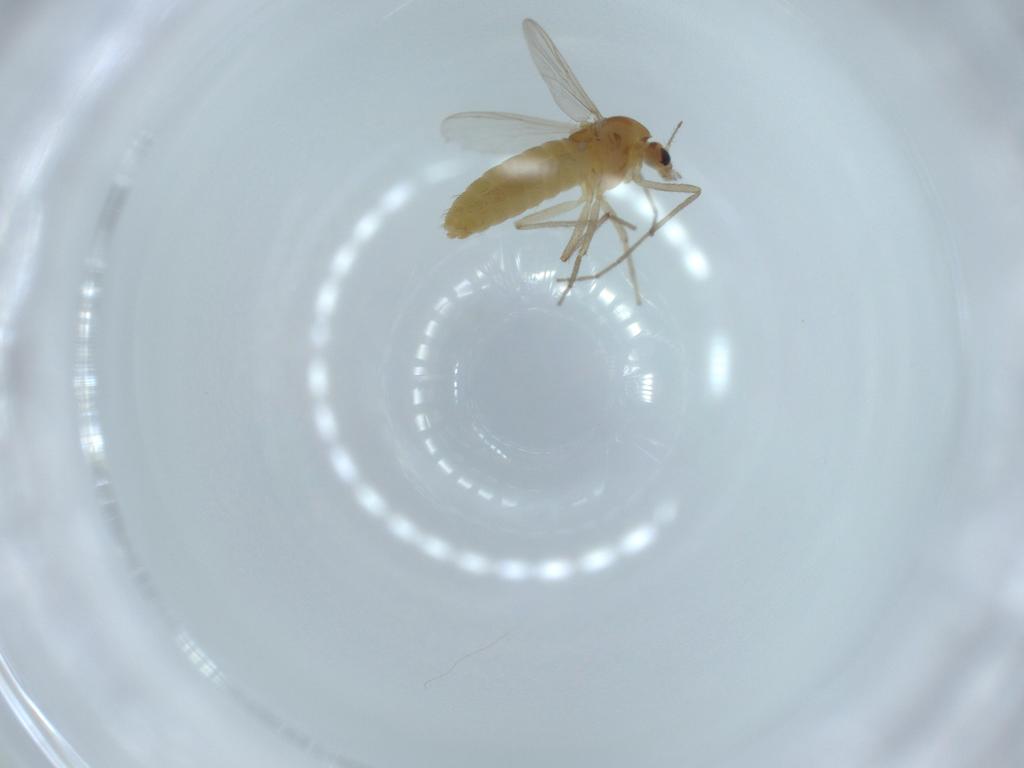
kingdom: Animalia
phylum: Arthropoda
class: Insecta
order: Diptera
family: Chironomidae
